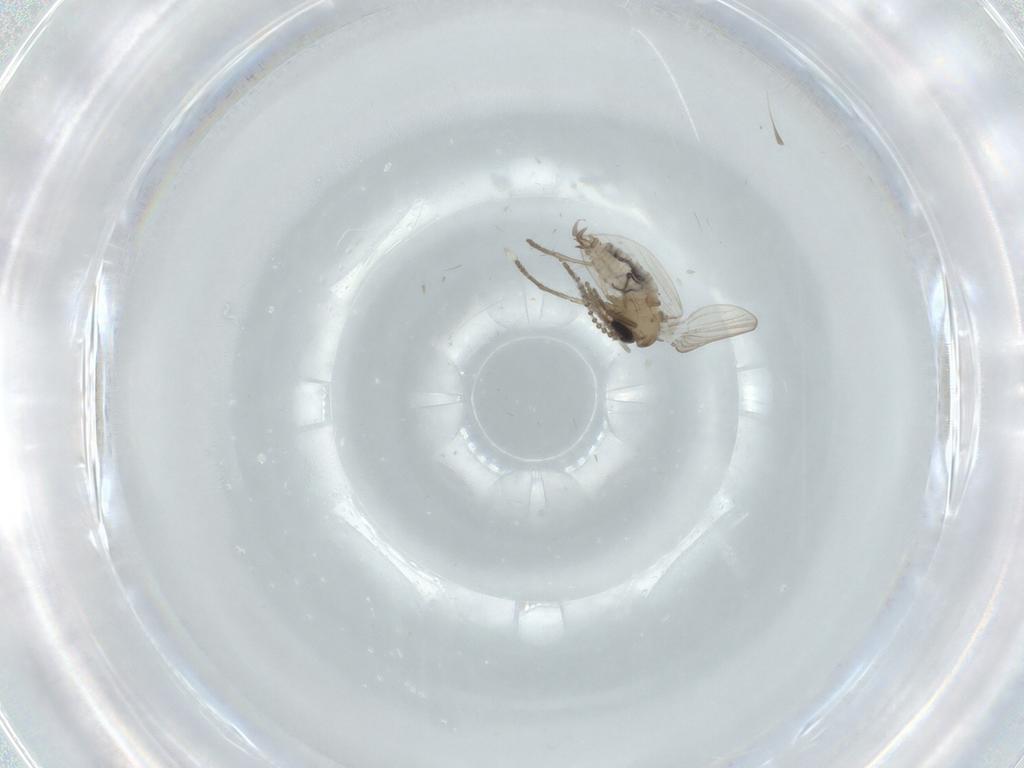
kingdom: Animalia
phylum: Arthropoda
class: Insecta
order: Diptera
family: Psychodidae
